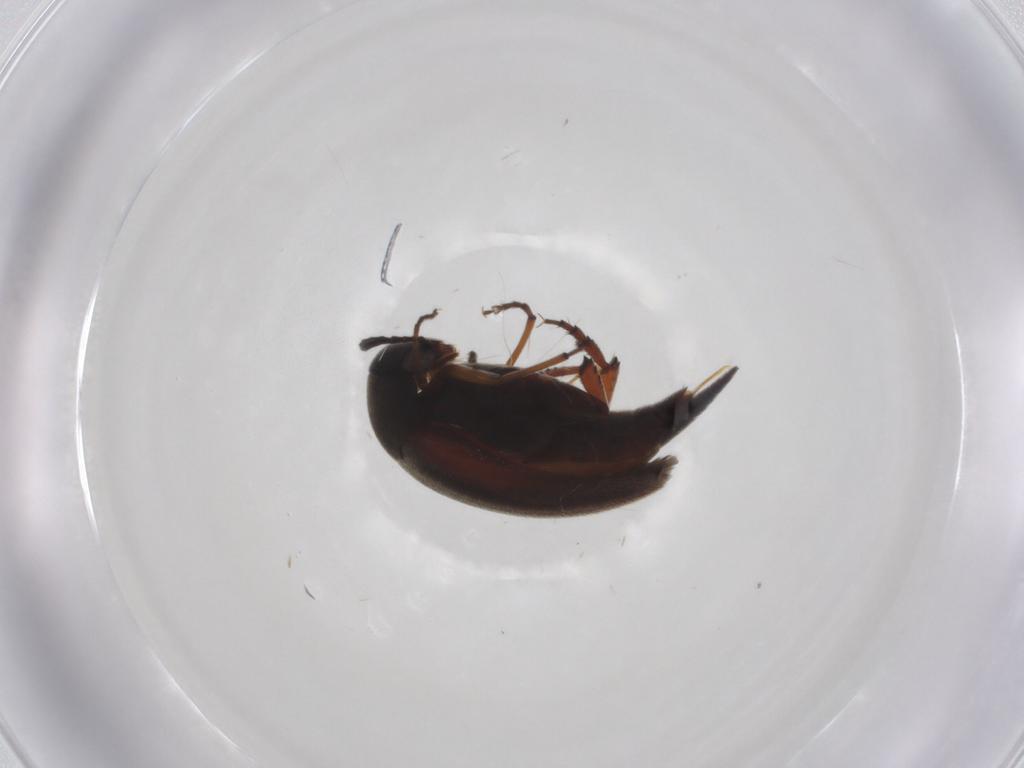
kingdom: Animalia
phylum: Arthropoda
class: Insecta
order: Coleoptera
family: Mordellidae
